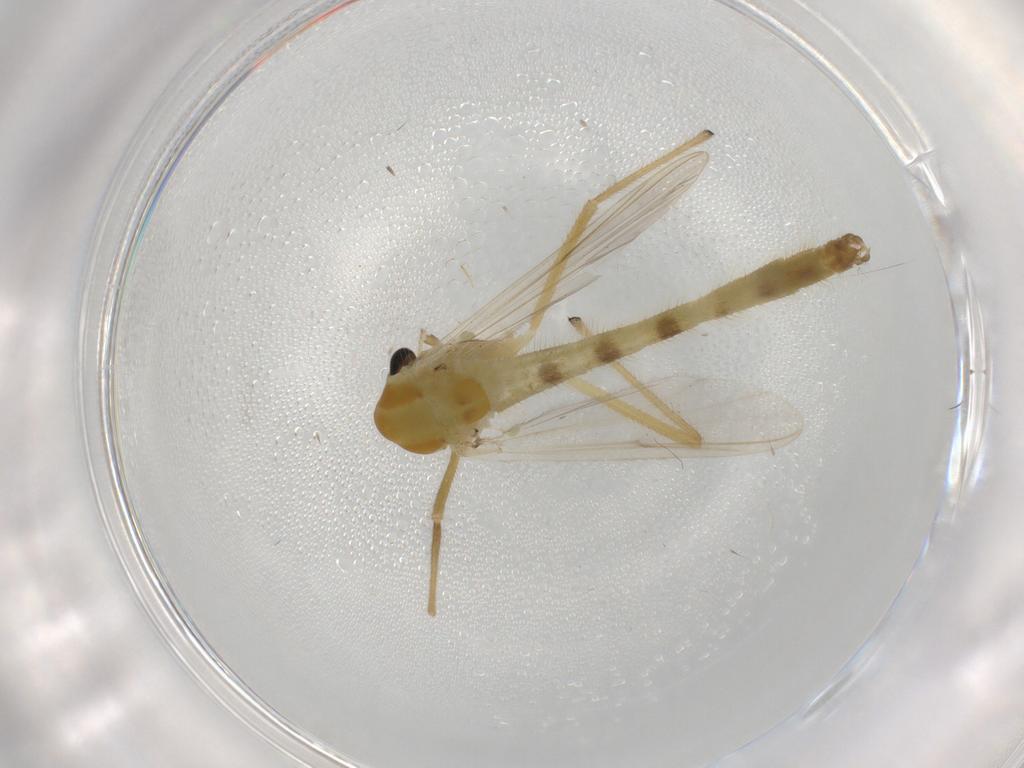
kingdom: Animalia
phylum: Arthropoda
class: Insecta
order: Diptera
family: Chironomidae
